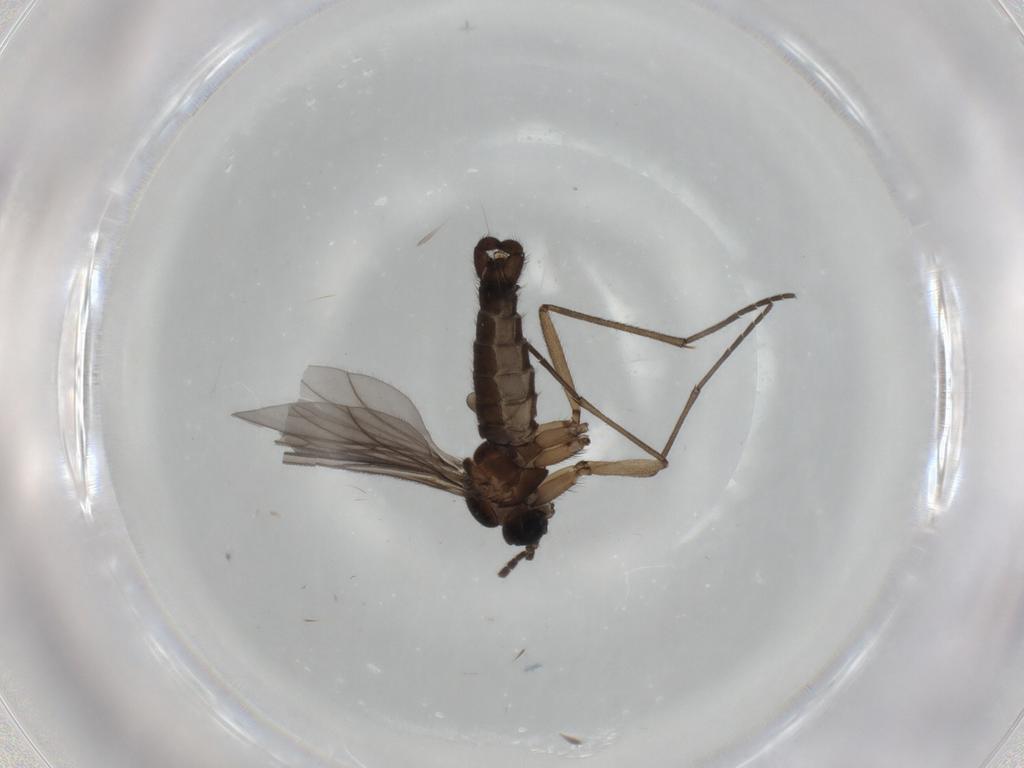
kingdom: Animalia
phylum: Arthropoda
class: Insecta
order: Diptera
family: Sciaridae
